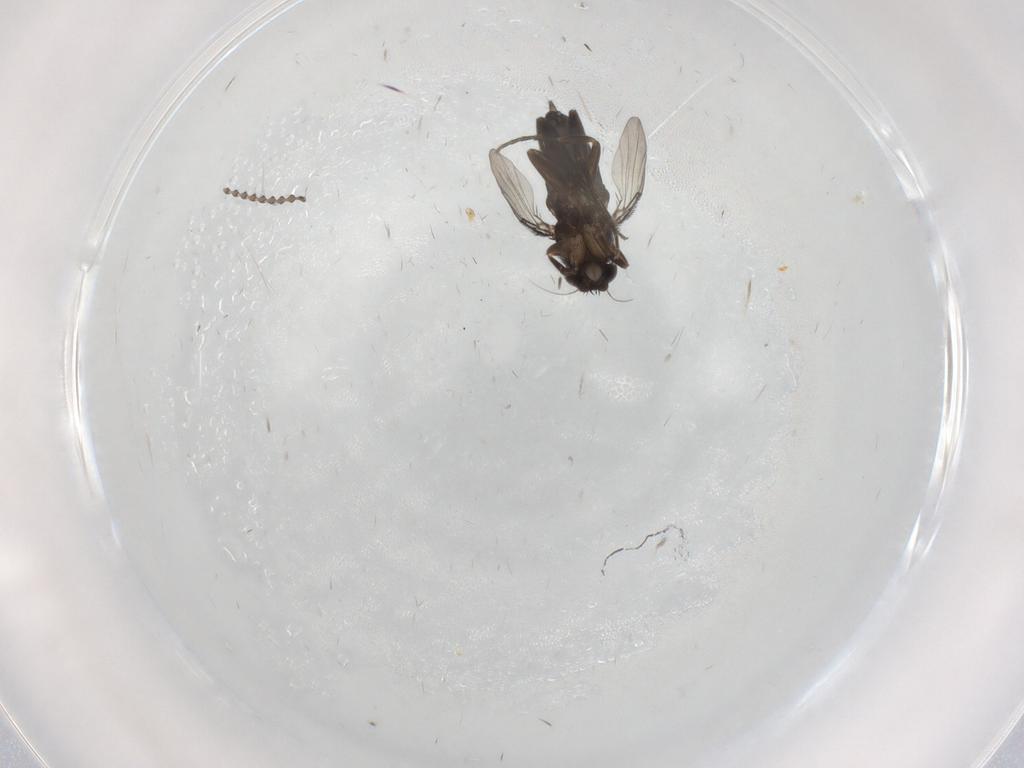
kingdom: Animalia
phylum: Arthropoda
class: Insecta
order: Diptera
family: Phoridae
